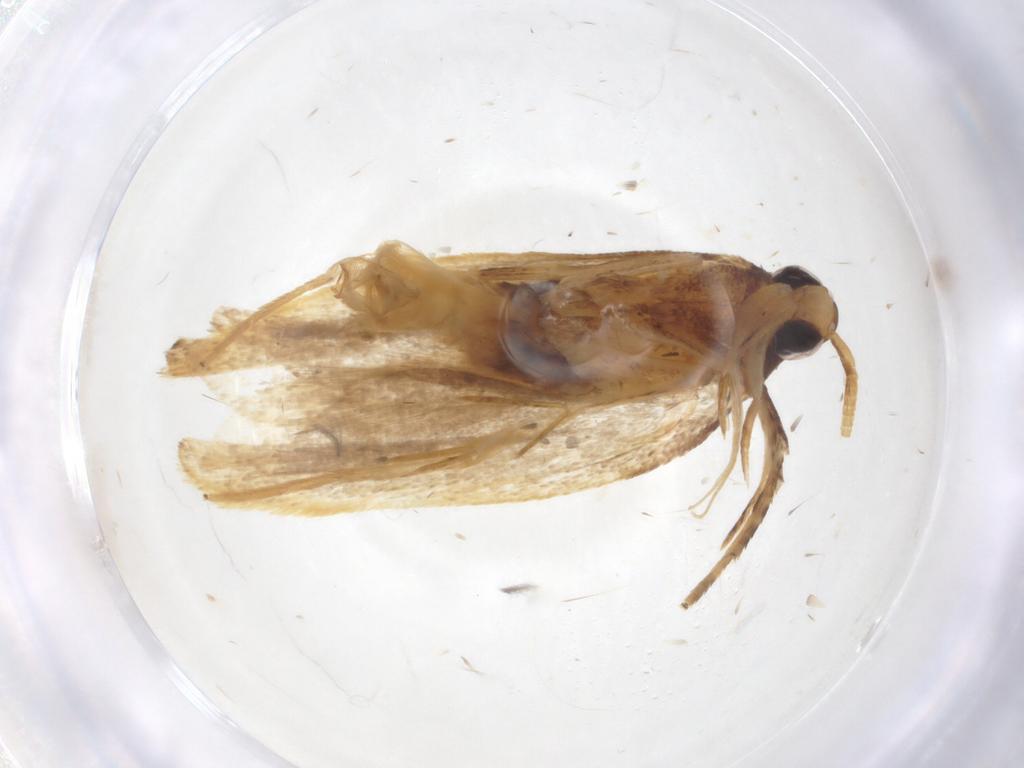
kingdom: Animalia
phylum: Arthropoda
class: Insecta
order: Lepidoptera
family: Lecithoceridae
